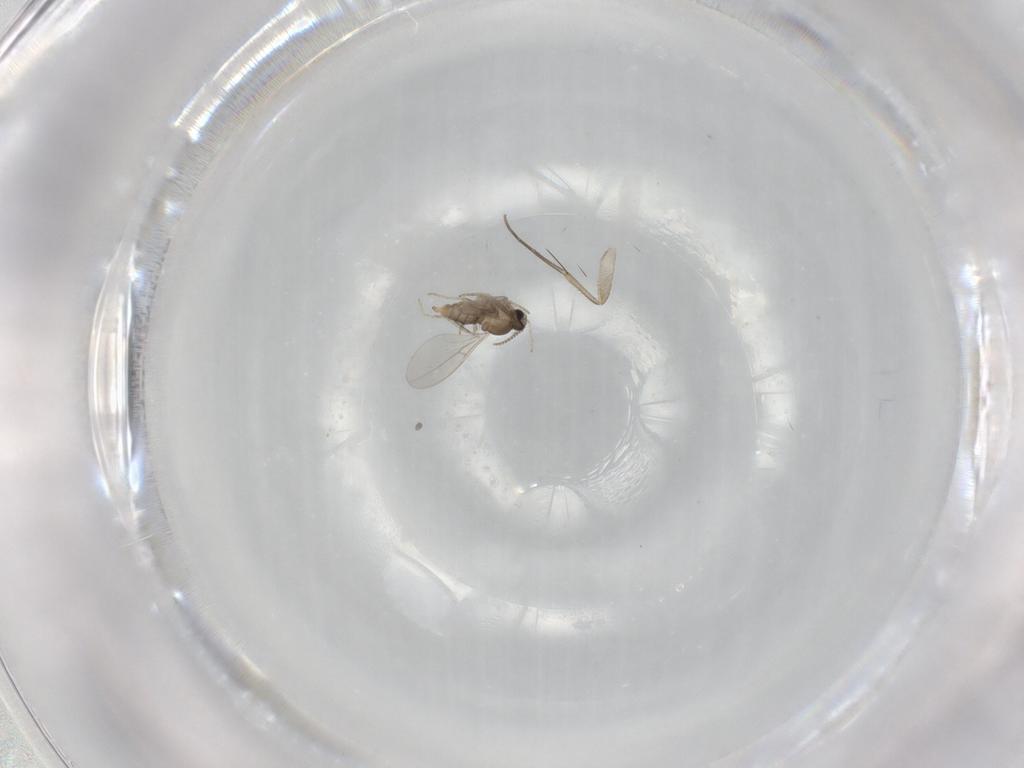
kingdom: Animalia
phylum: Arthropoda
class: Insecta
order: Diptera
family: Cecidomyiidae
